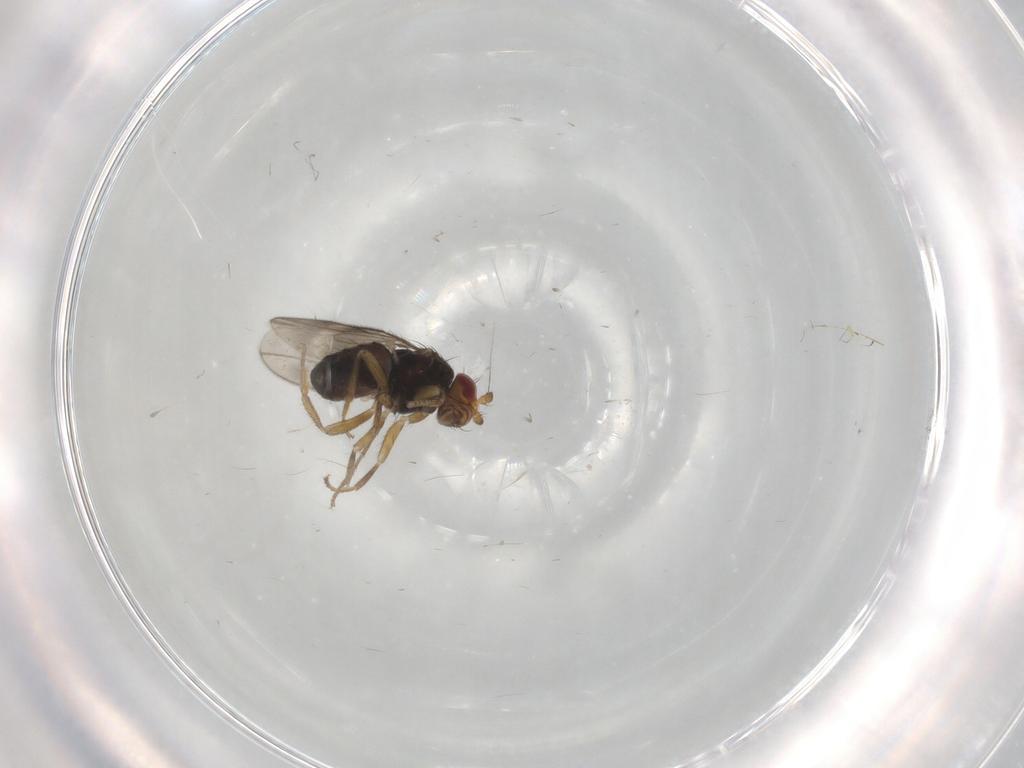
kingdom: Animalia
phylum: Arthropoda
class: Insecta
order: Diptera
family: Sphaeroceridae
